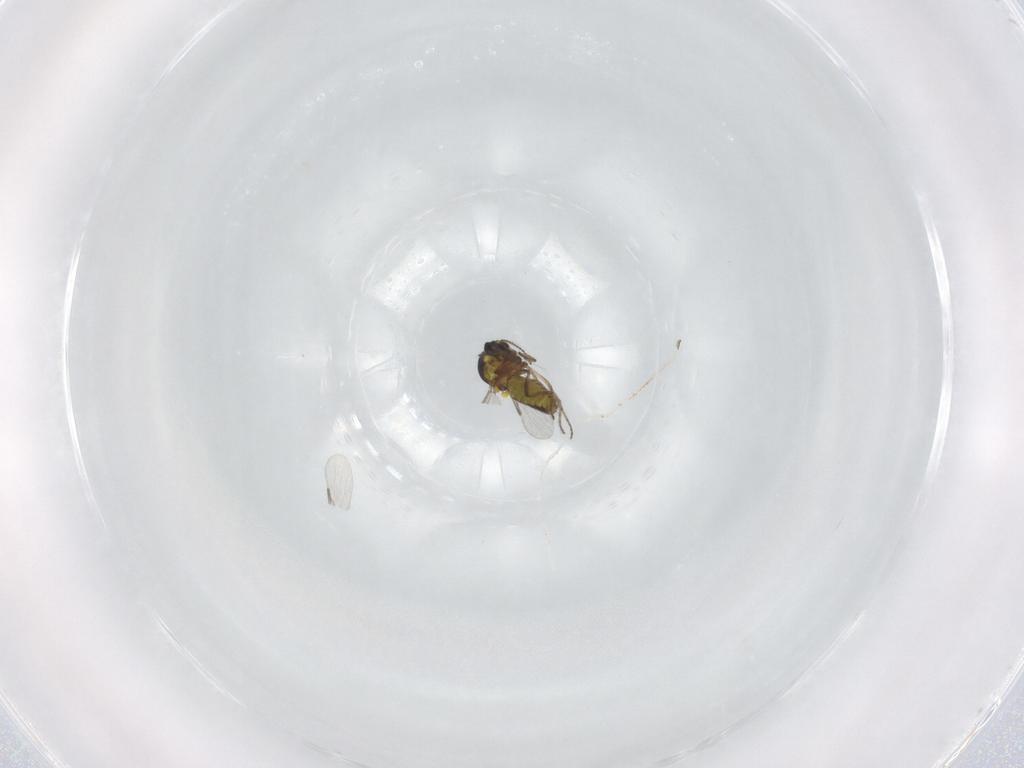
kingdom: Animalia
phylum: Arthropoda
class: Insecta
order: Diptera
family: Ceratopogonidae
